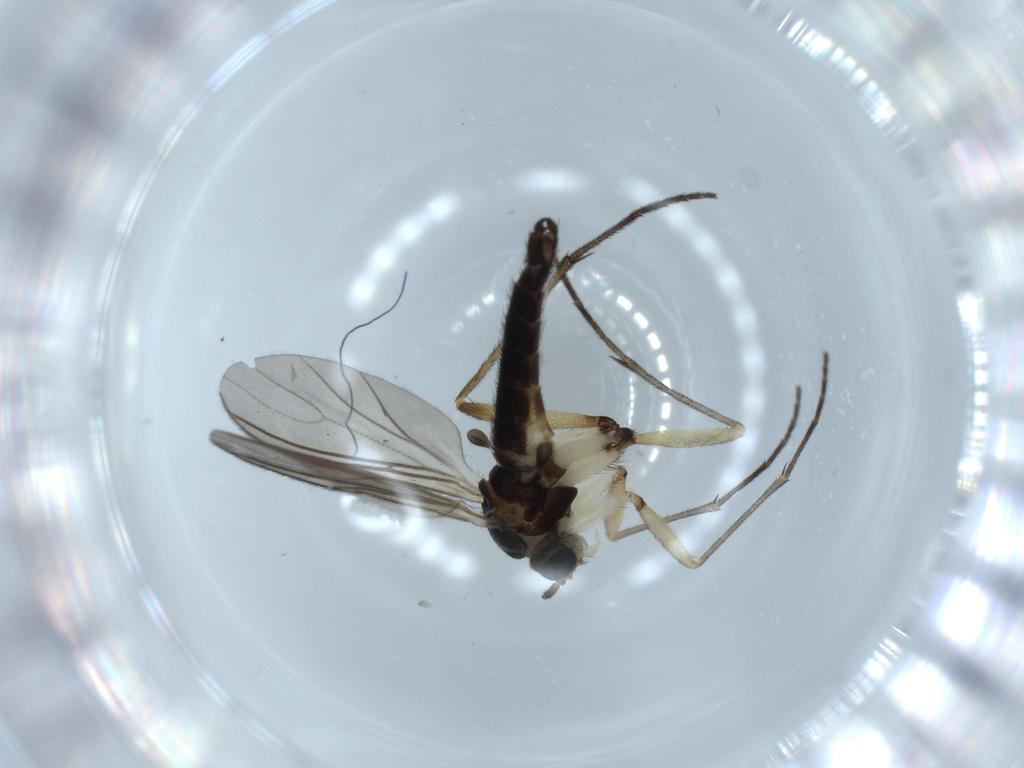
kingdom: Animalia
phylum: Arthropoda
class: Insecta
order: Diptera
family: Sciaridae
